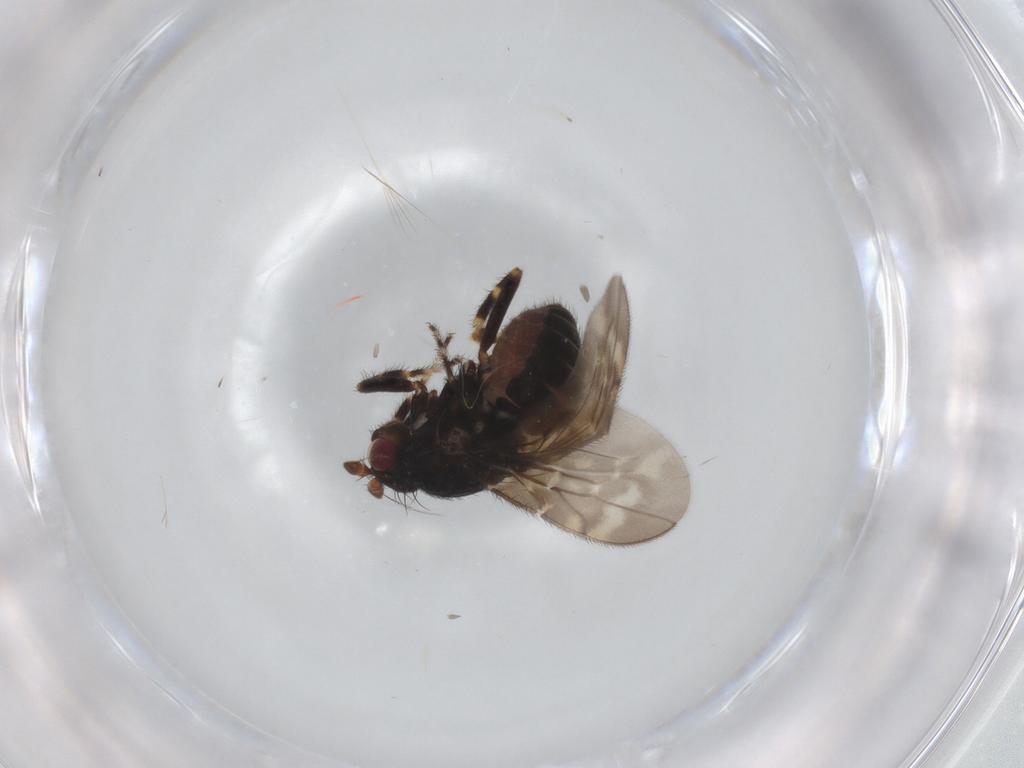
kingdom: Animalia
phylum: Arthropoda
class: Insecta
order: Diptera
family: Sphaeroceridae
